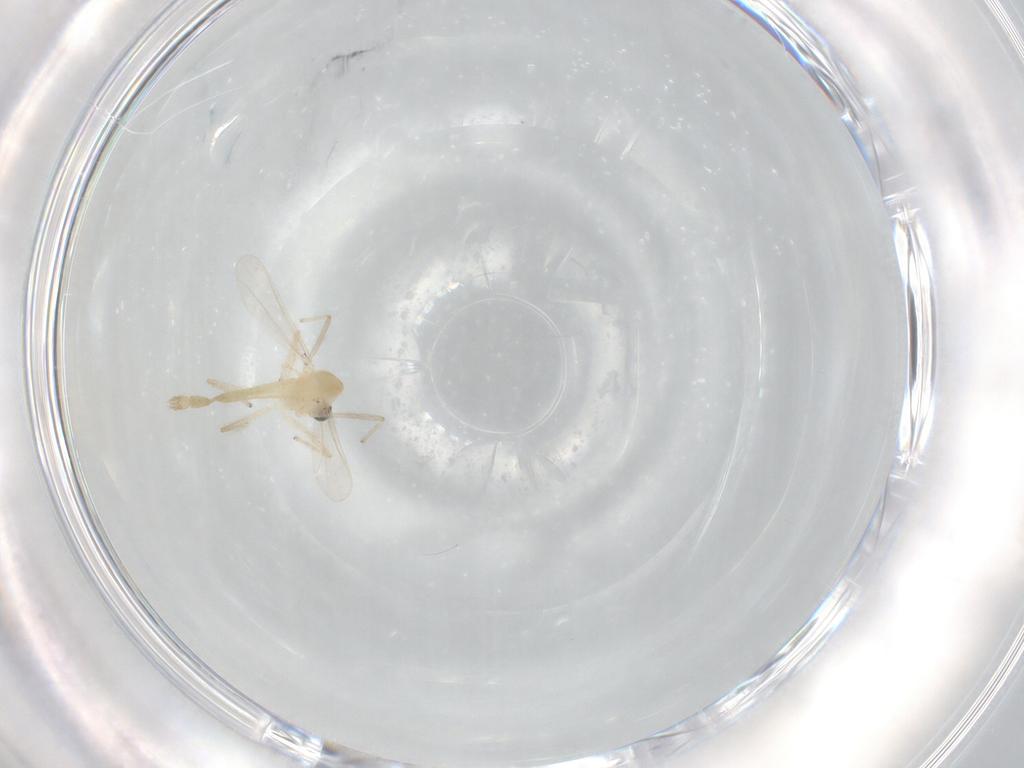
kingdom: Animalia
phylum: Arthropoda
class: Insecta
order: Diptera
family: Chironomidae
